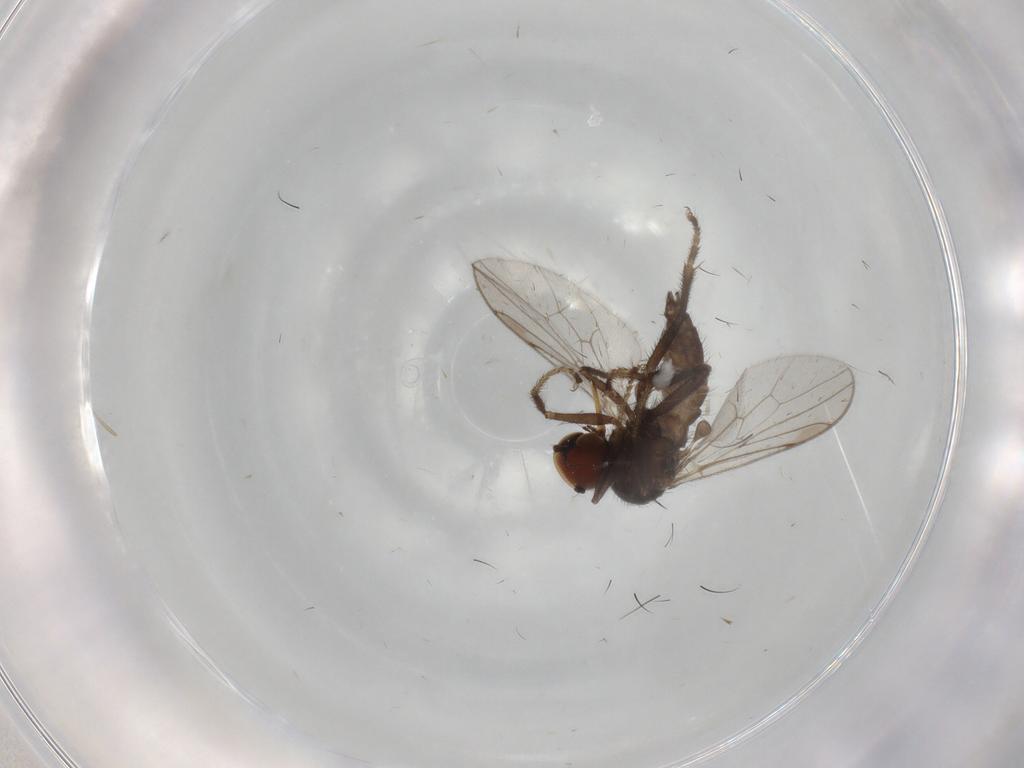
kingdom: Animalia
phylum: Arthropoda
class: Insecta
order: Diptera
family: Hybotidae
